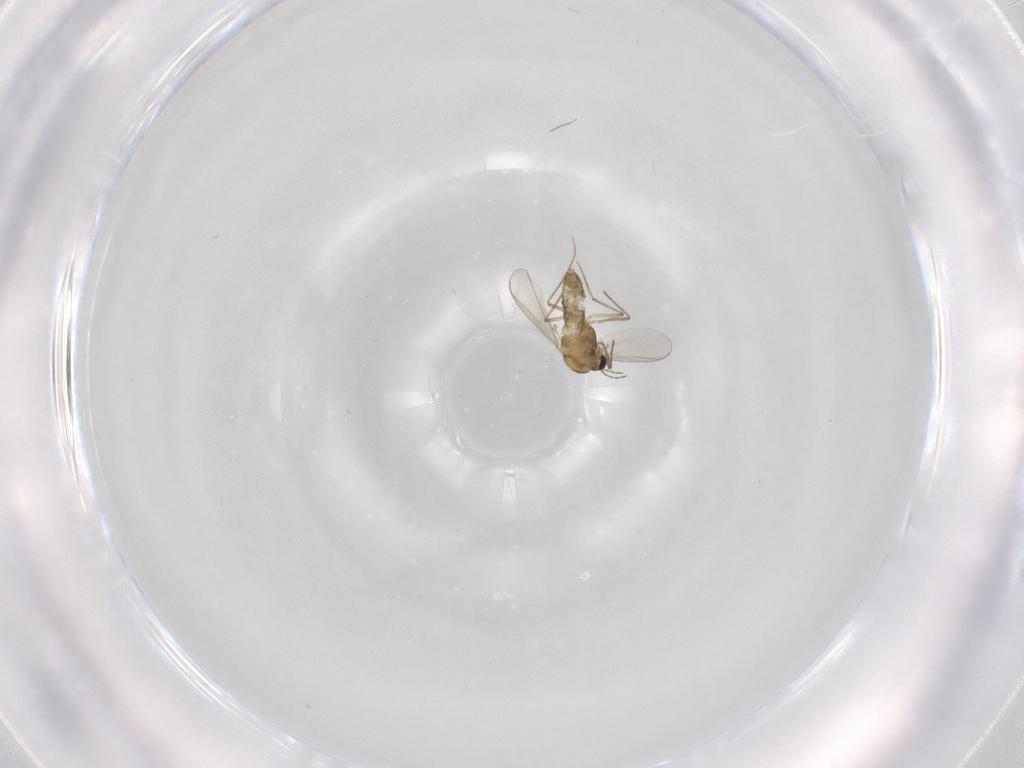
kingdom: Animalia
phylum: Arthropoda
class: Insecta
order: Diptera
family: Chironomidae
